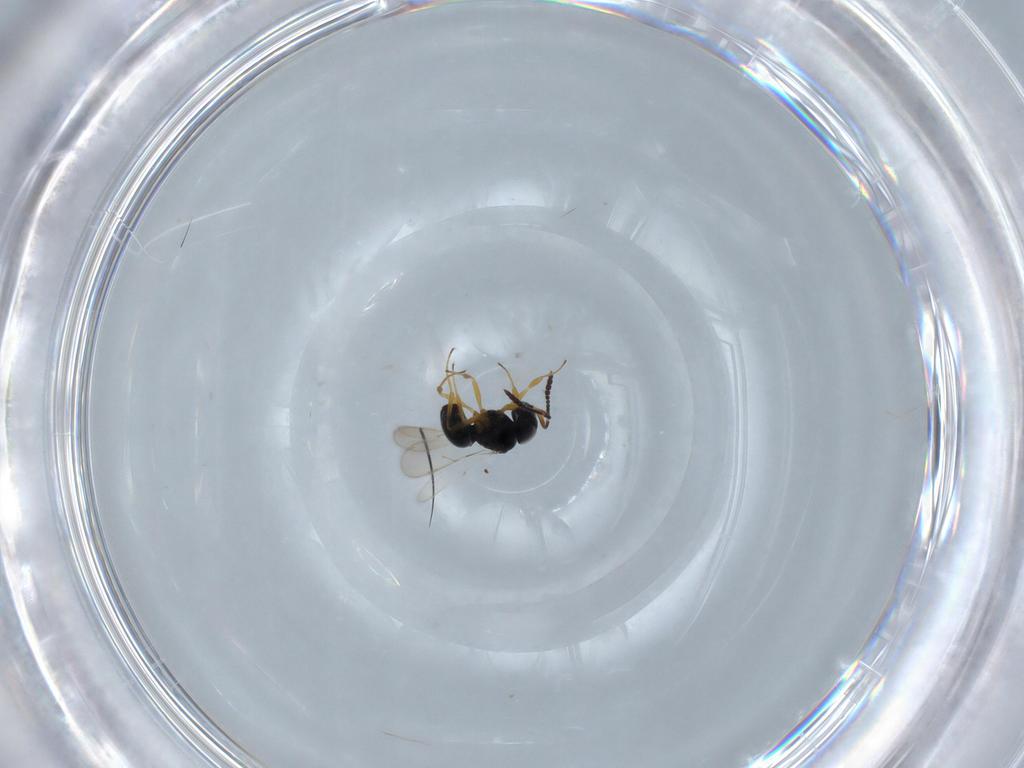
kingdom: Animalia
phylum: Arthropoda
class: Insecta
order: Hymenoptera
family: Scelionidae
